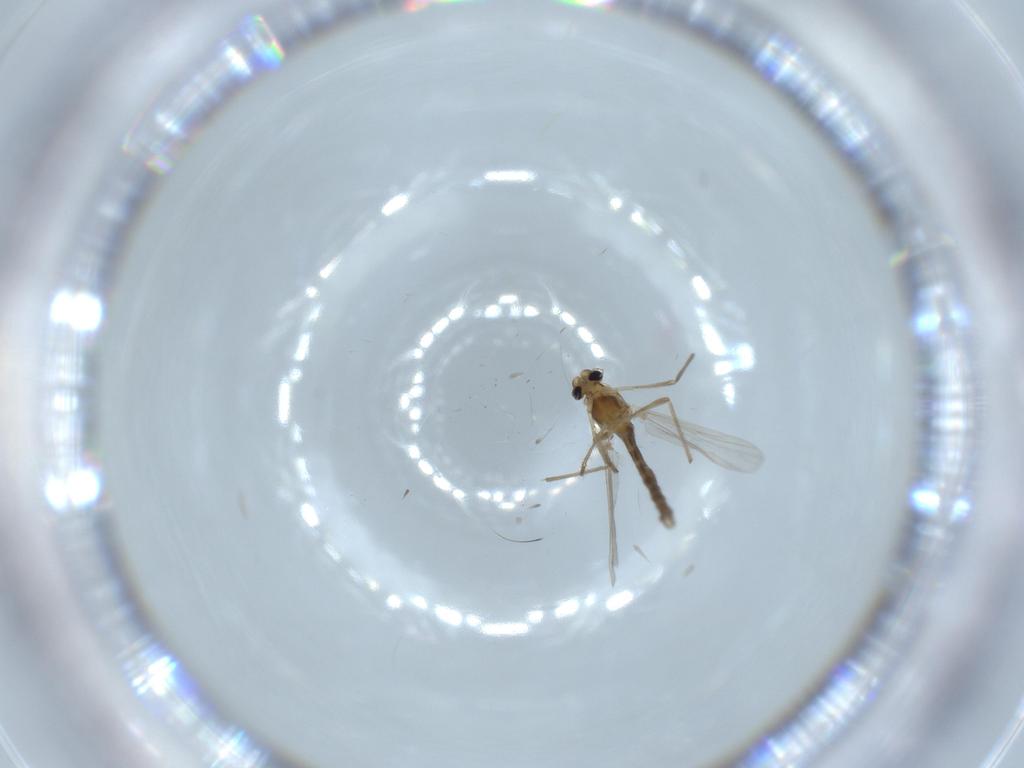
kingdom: Animalia
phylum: Arthropoda
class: Insecta
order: Diptera
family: Chironomidae
